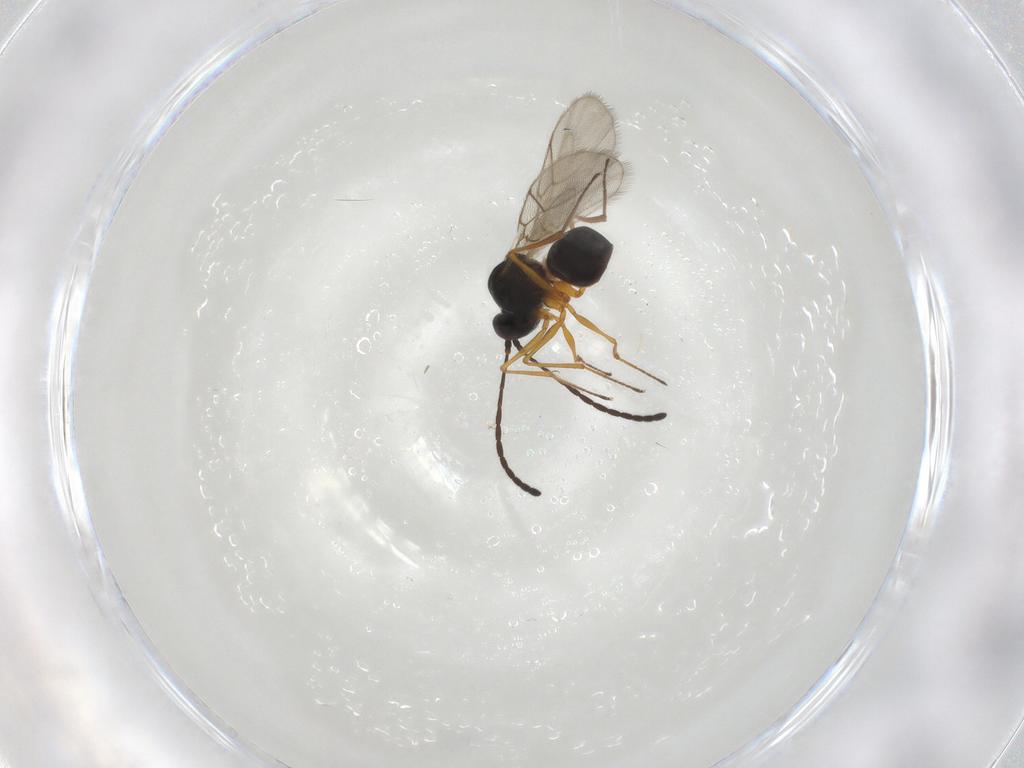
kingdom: Animalia
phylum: Arthropoda
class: Insecta
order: Hymenoptera
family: Figitidae
